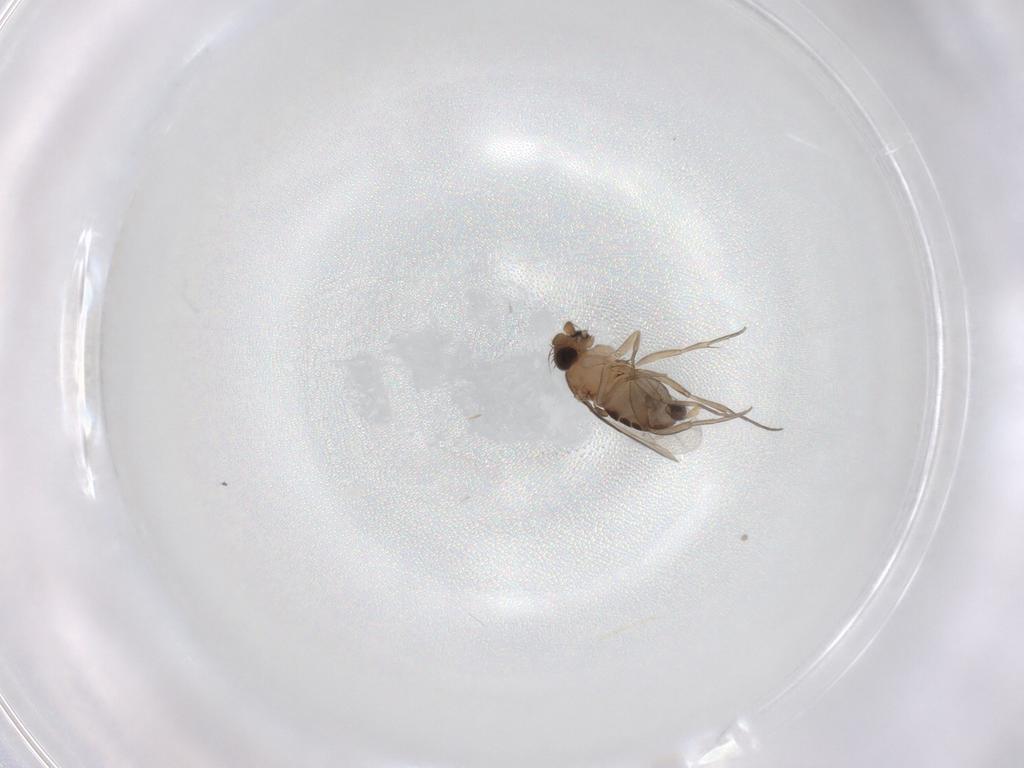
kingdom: Animalia
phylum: Arthropoda
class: Insecta
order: Diptera
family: Phoridae
